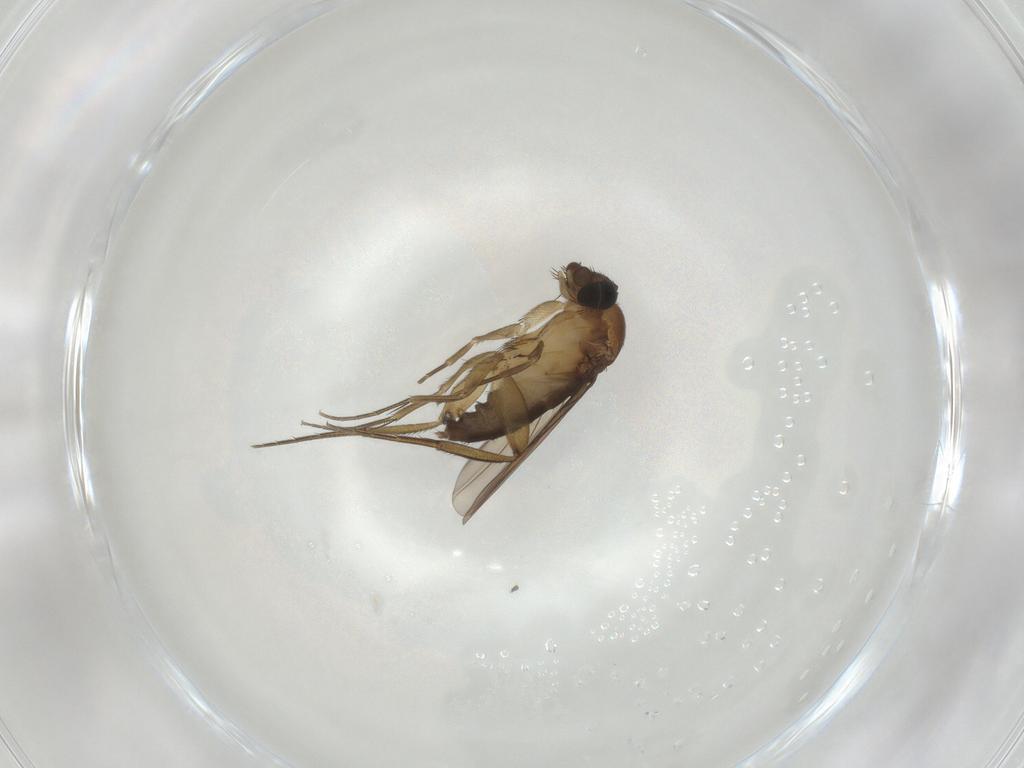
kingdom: Animalia
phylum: Arthropoda
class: Insecta
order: Diptera
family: Phoridae
